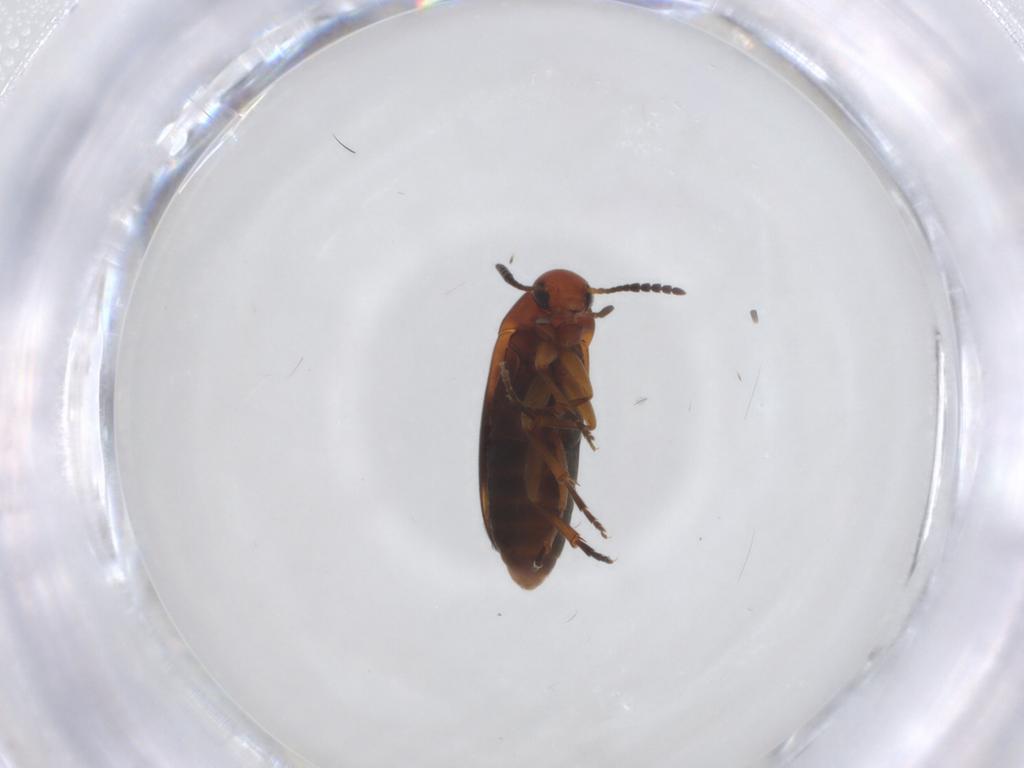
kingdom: Animalia
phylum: Arthropoda
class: Insecta
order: Coleoptera
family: Scraptiidae
